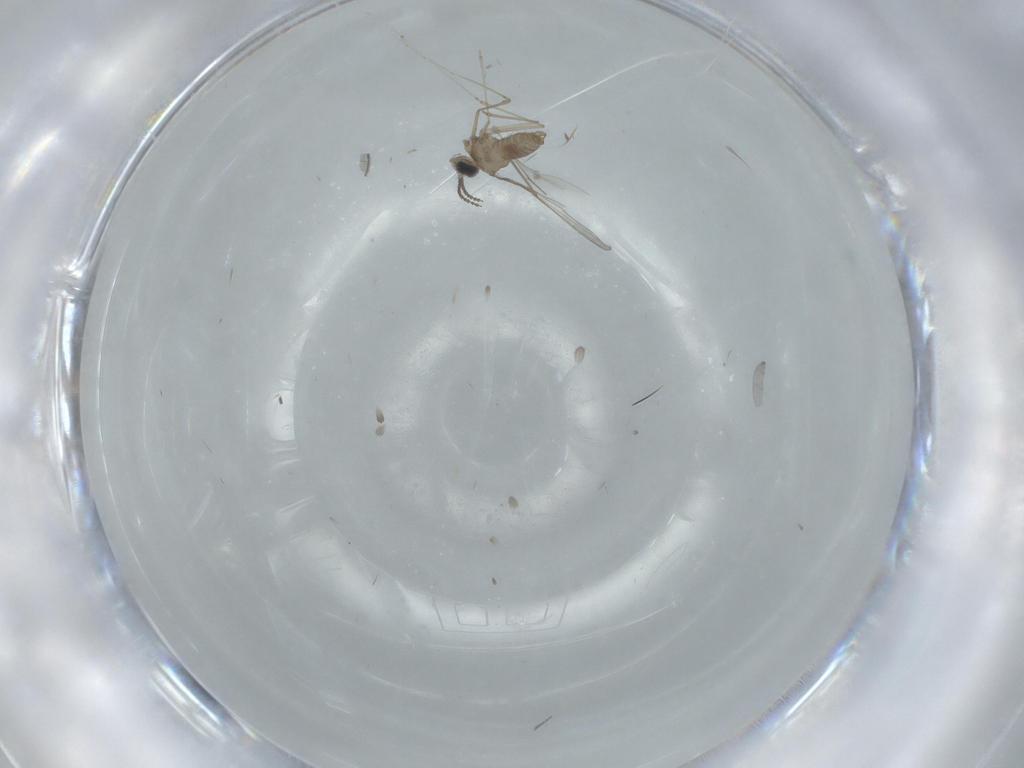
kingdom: Animalia
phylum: Arthropoda
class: Insecta
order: Diptera
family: Cecidomyiidae
